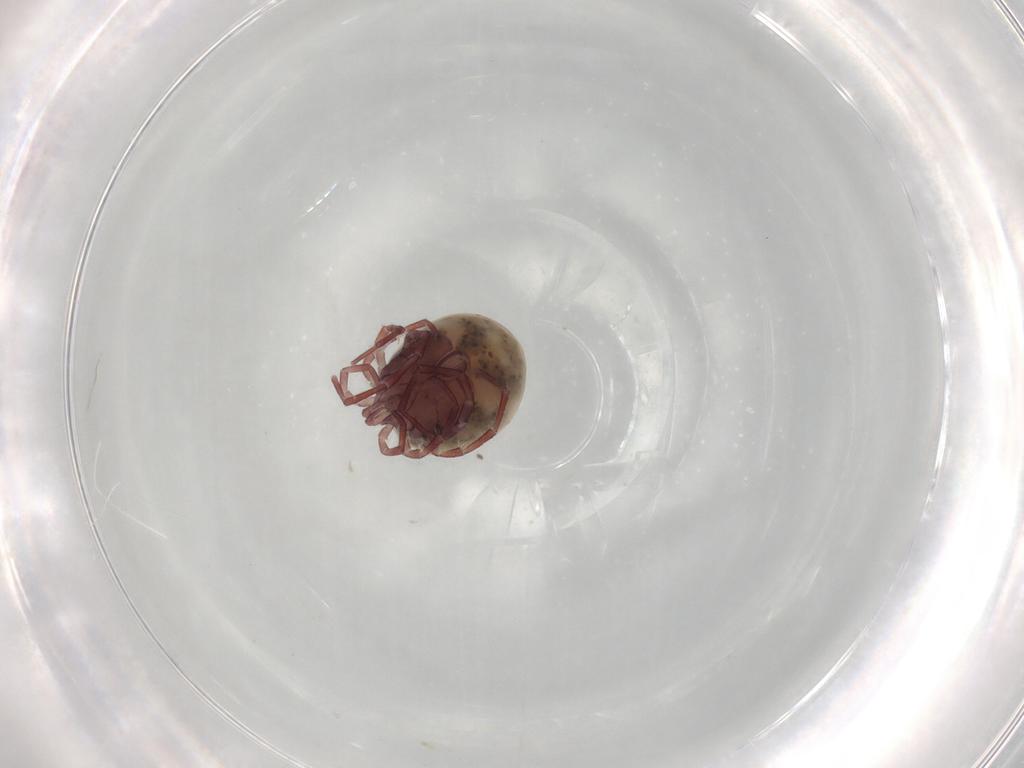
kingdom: Animalia
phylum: Arthropoda
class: Arachnida
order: Trombidiformes
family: Lebertiidae
